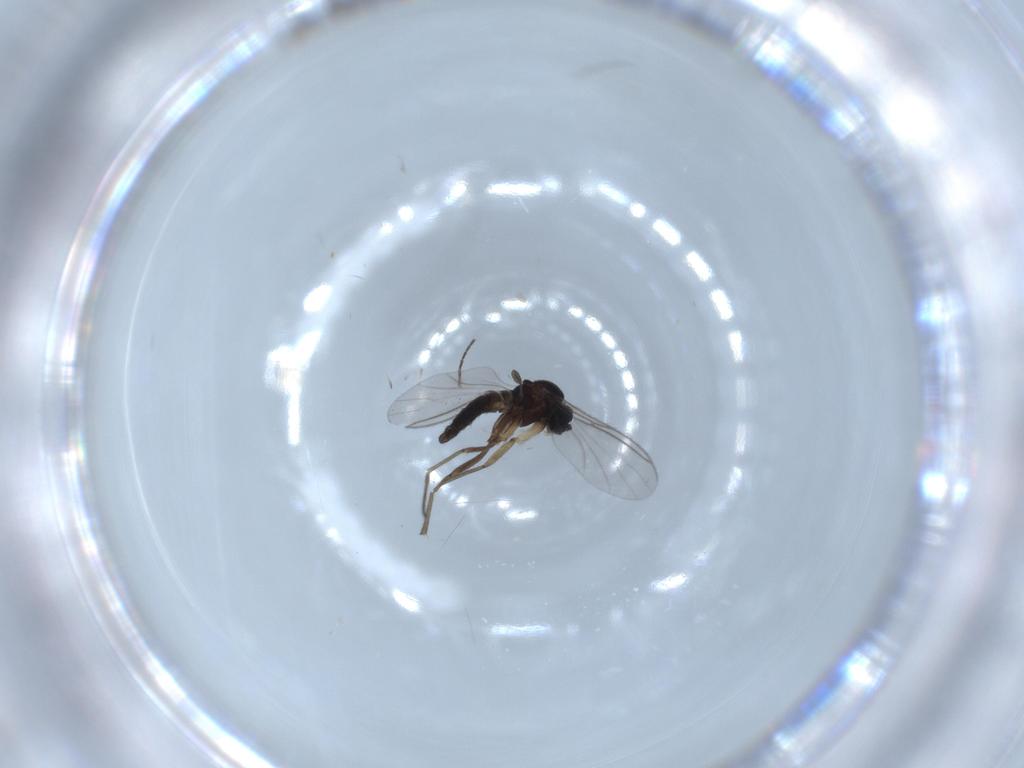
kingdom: Animalia
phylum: Arthropoda
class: Insecta
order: Diptera
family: Sciaridae
